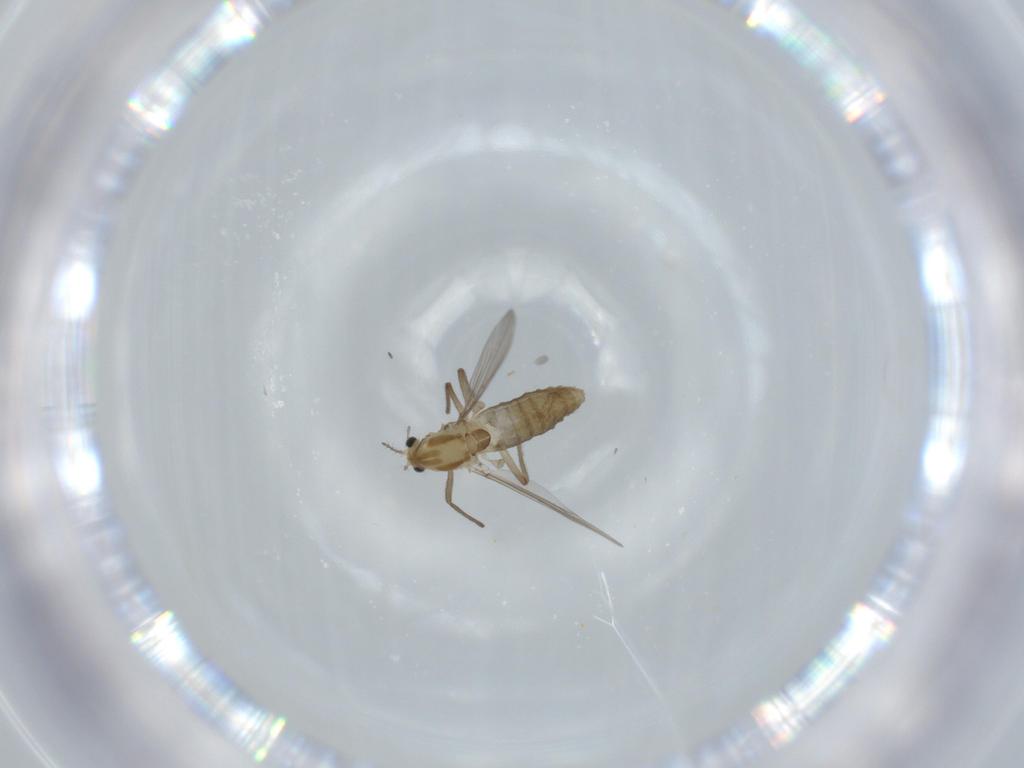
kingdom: Animalia
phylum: Arthropoda
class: Insecta
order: Diptera
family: Chironomidae
